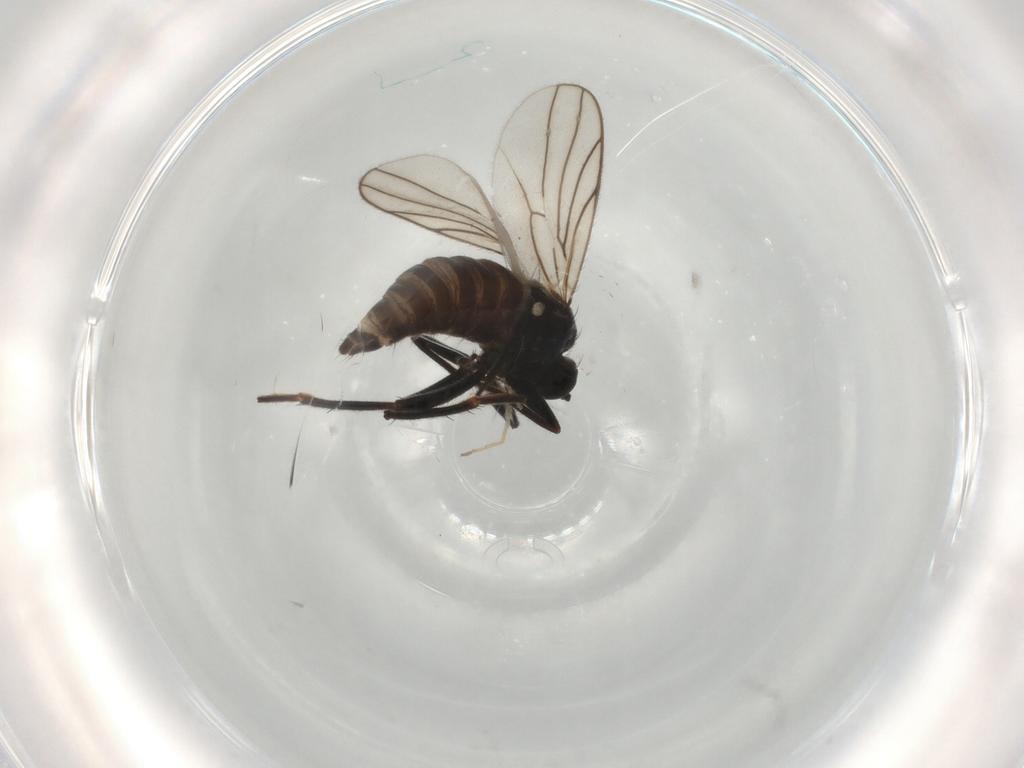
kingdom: Animalia
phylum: Arthropoda
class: Insecta
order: Diptera
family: Hybotidae
